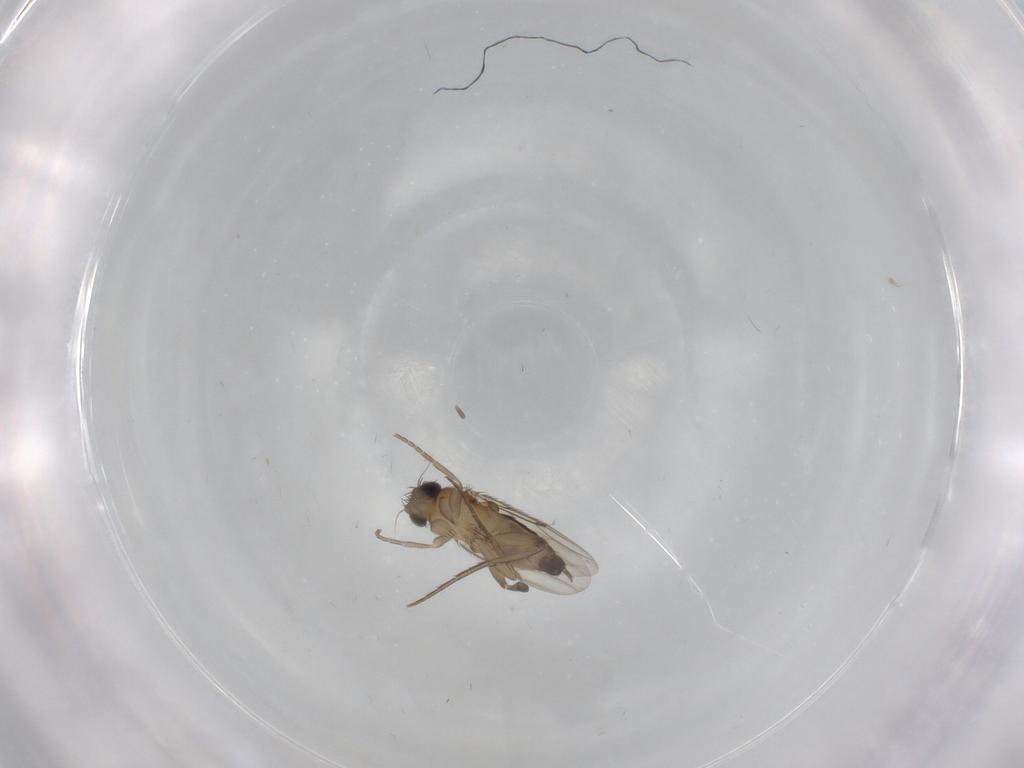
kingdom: Animalia
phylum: Arthropoda
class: Insecta
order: Diptera
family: Phoridae
